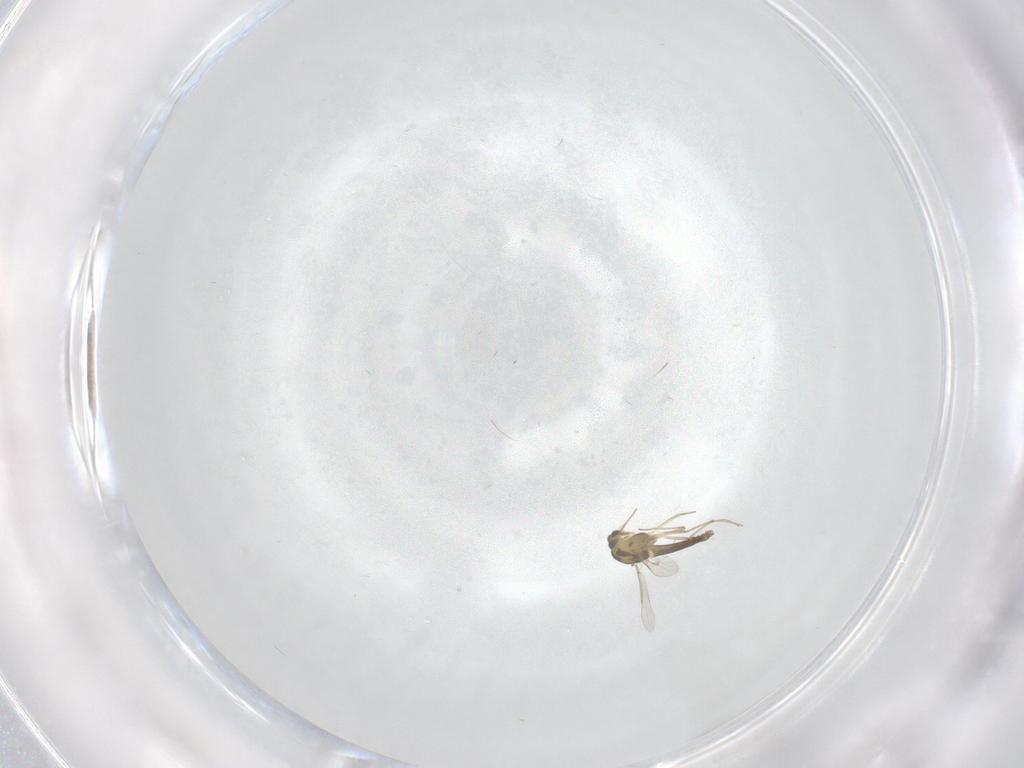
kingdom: Animalia
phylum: Arthropoda
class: Insecta
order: Diptera
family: Chironomidae
